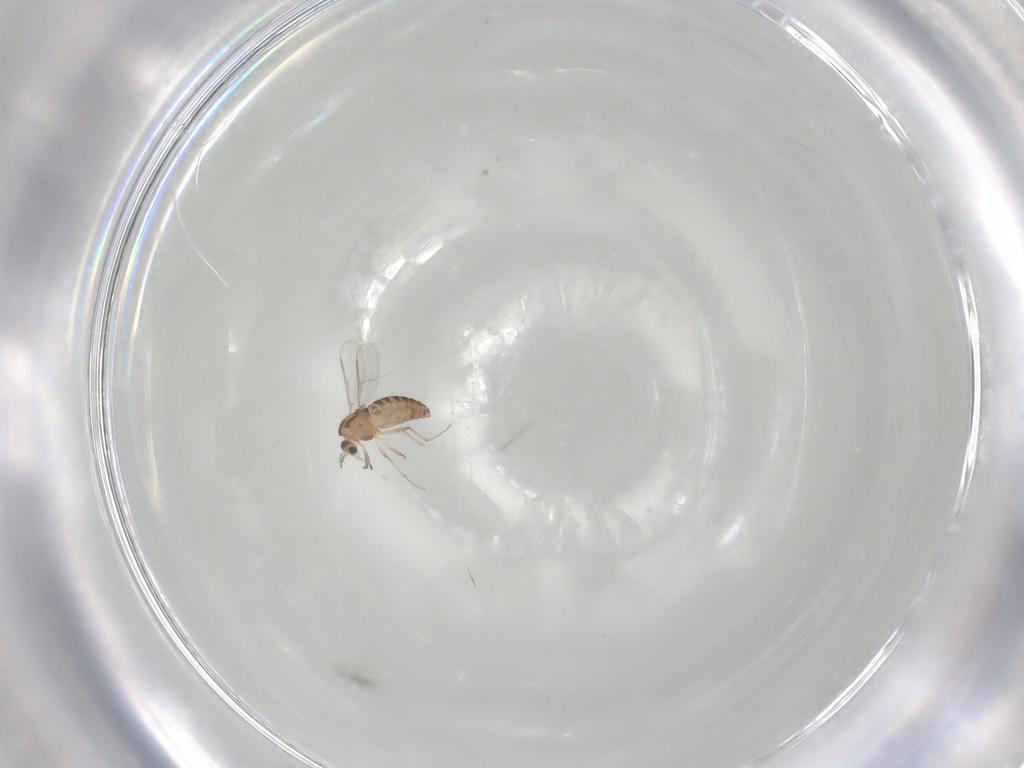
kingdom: Animalia
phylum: Arthropoda
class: Insecta
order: Diptera
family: Chironomidae
